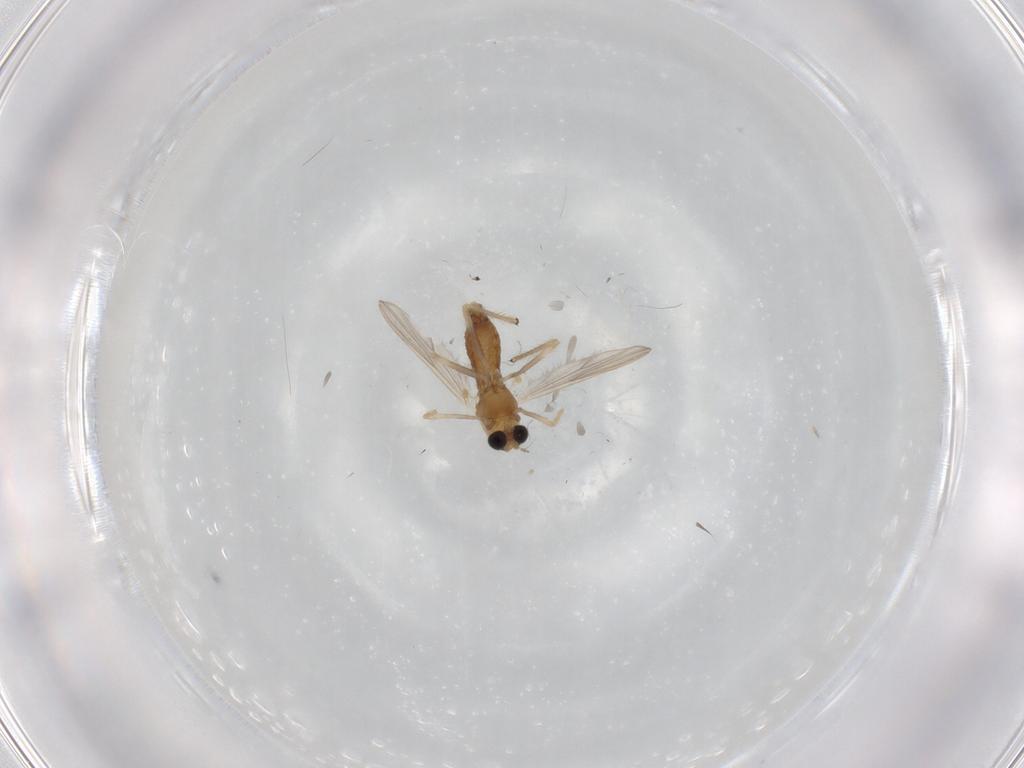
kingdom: Animalia
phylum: Arthropoda
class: Insecta
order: Diptera
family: Chironomidae
